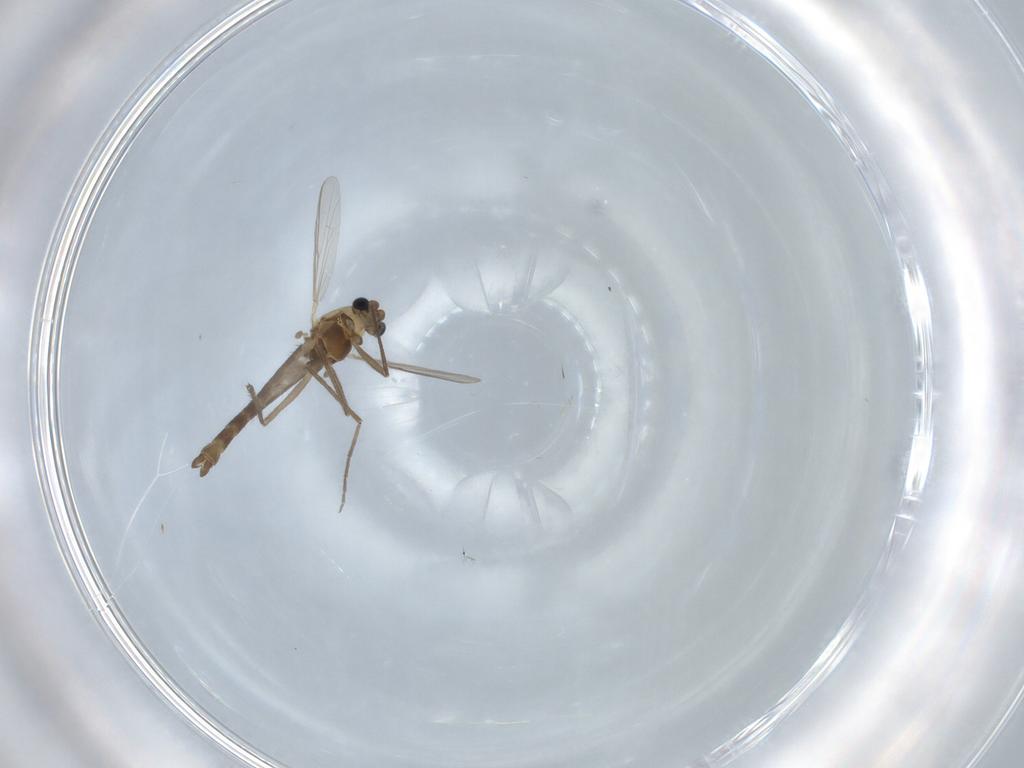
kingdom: Animalia
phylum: Arthropoda
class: Insecta
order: Diptera
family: Chironomidae
